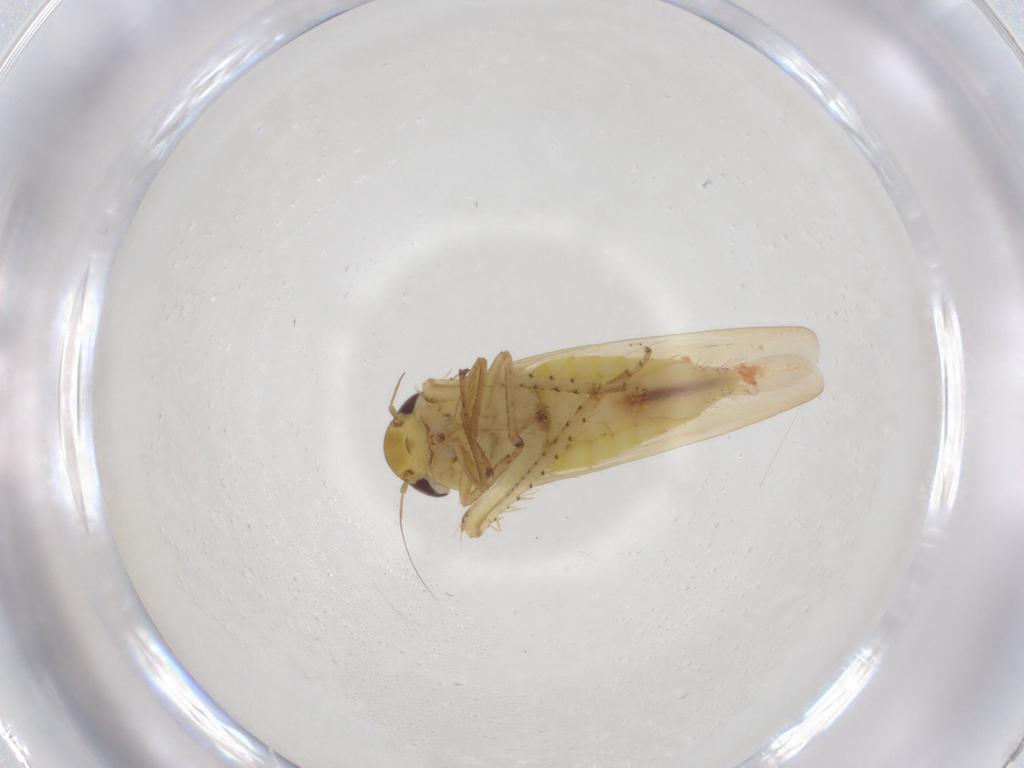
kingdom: Animalia
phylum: Arthropoda
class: Insecta
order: Hemiptera
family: Cicadellidae
